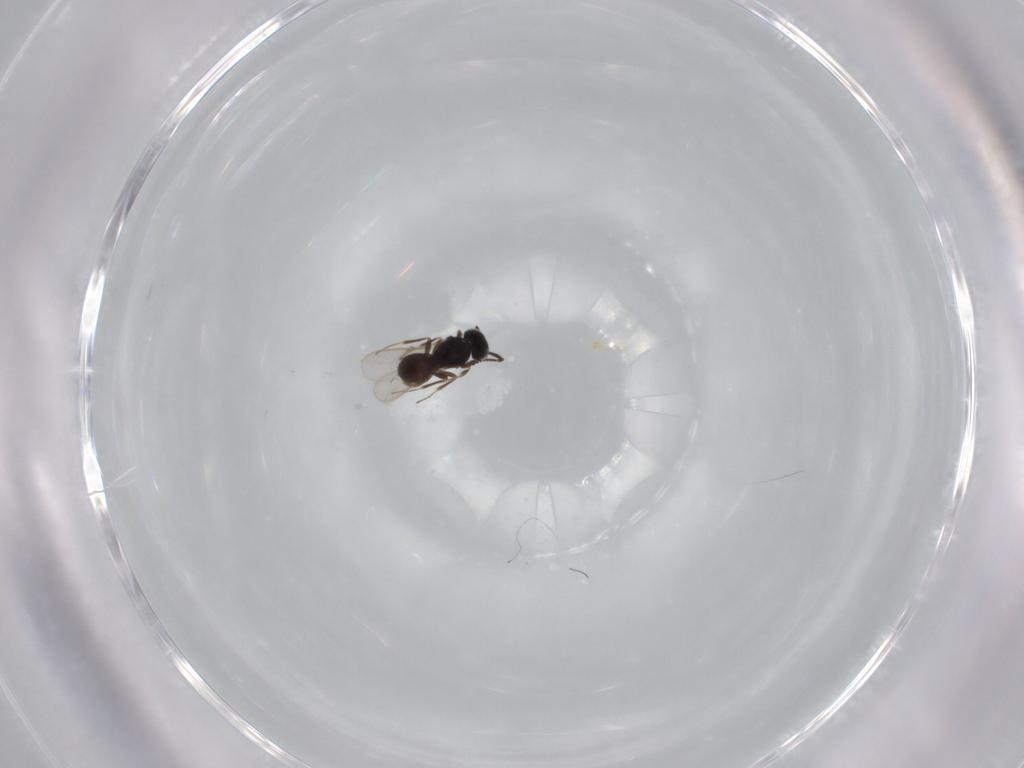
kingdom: Animalia
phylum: Arthropoda
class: Insecta
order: Hymenoptera
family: Scelionidae
